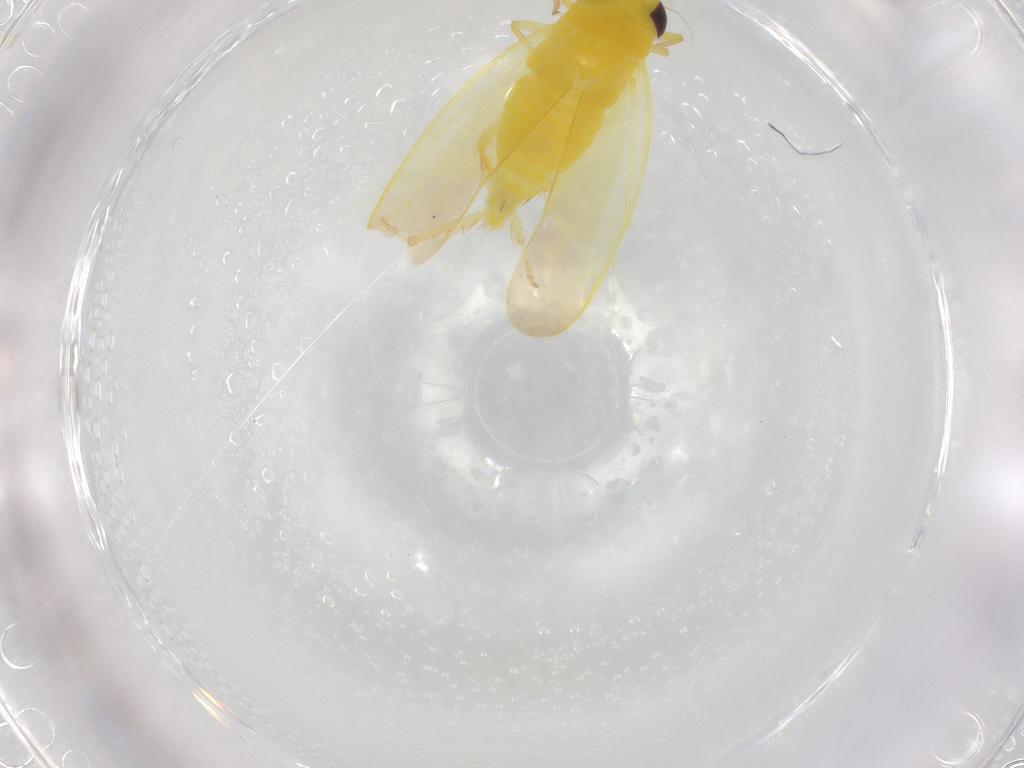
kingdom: Animalia
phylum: Arthropoda
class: Insecta
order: Hemiptera
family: Cicadellidae
